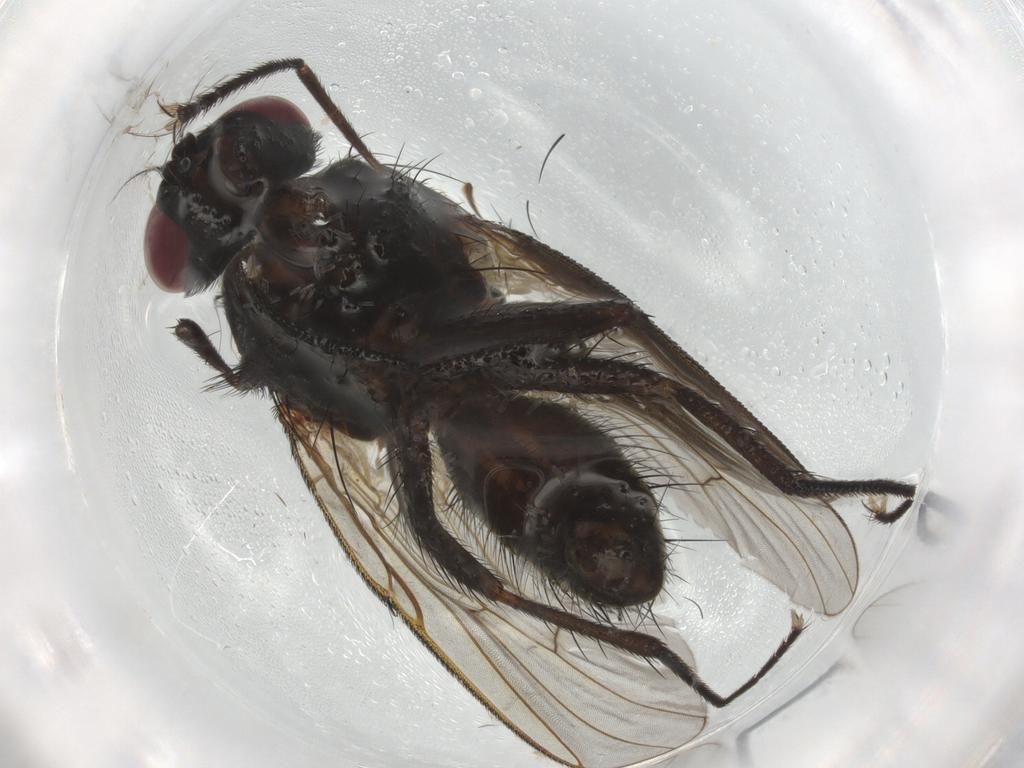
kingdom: Animalia
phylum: Arthropoda
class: Insecta
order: Diptera
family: Muscidae
